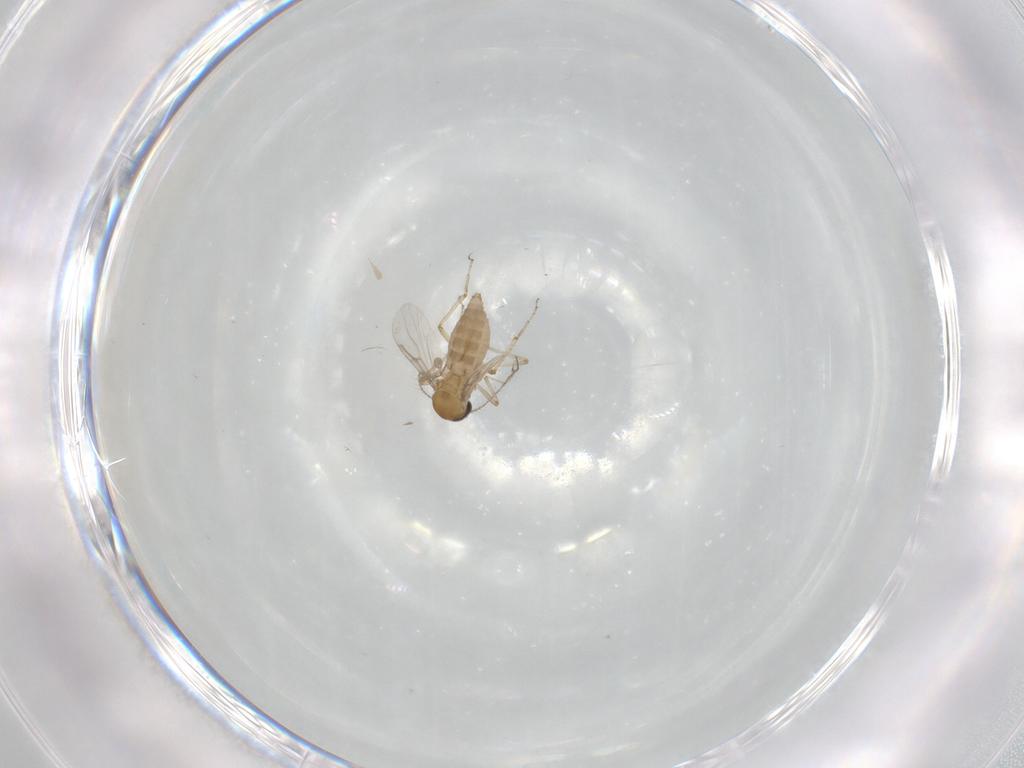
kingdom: Animalia
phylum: Arthropoda
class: Insecta
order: Diptera
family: Ceratopogonidae
